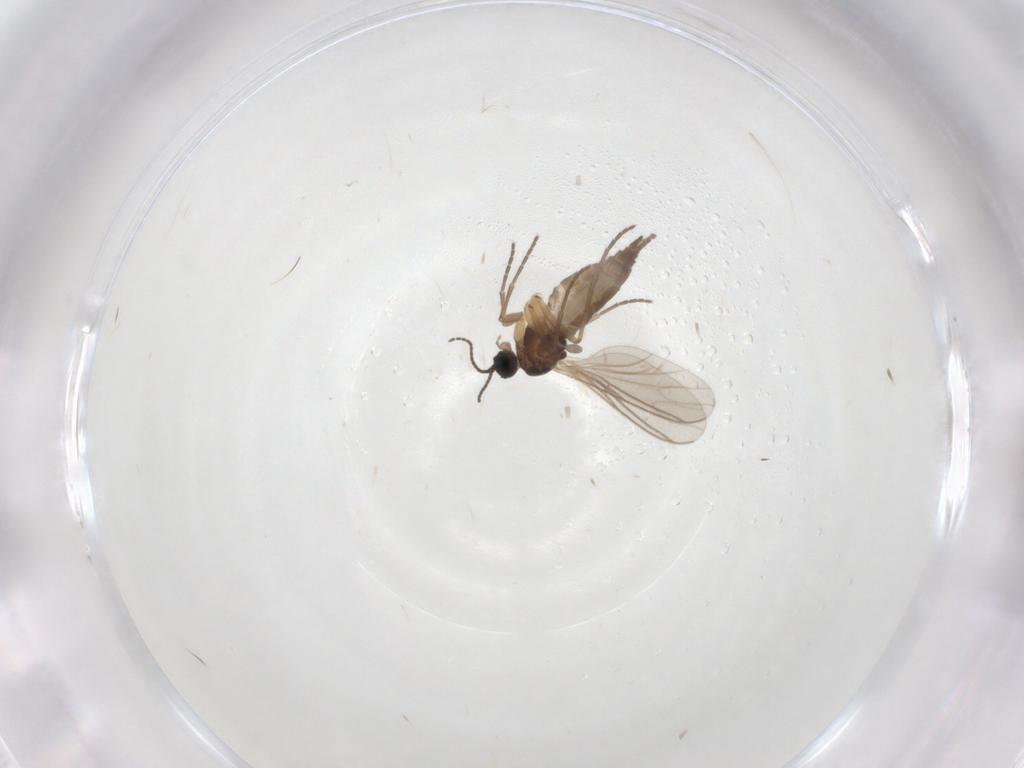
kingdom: Animalia
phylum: Arthropoda
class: Insecta
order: Diptera
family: Sciaridae
